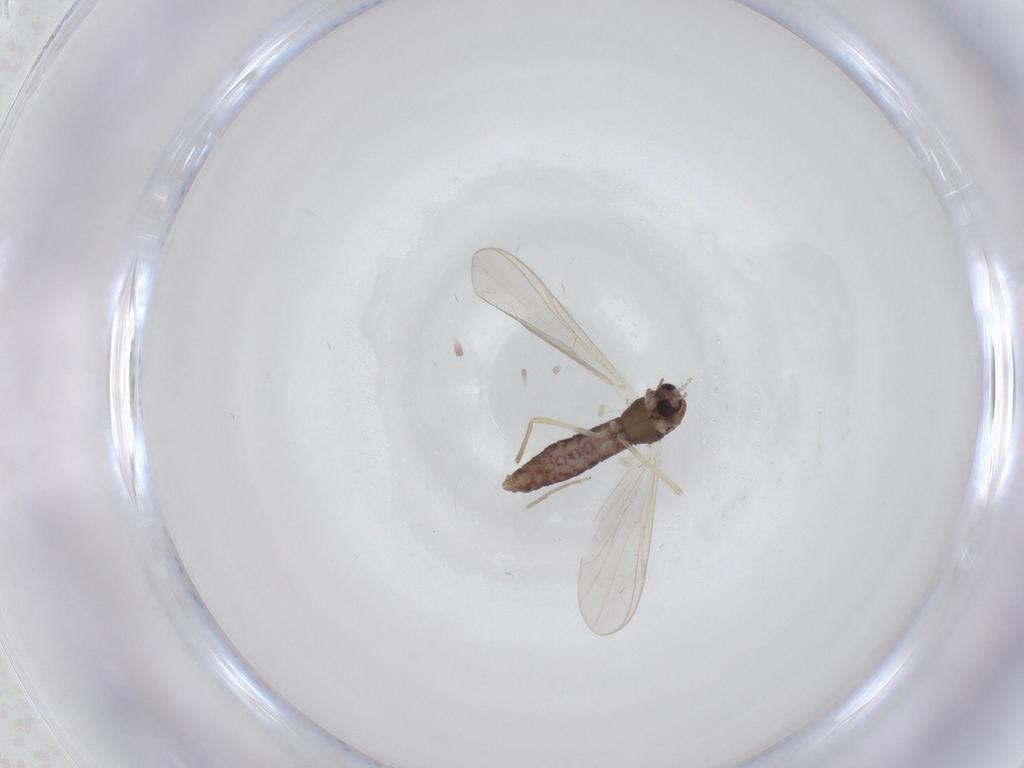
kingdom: Animalia
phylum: Arthropoda
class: Insecta
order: Diptera
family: Chironomidae
